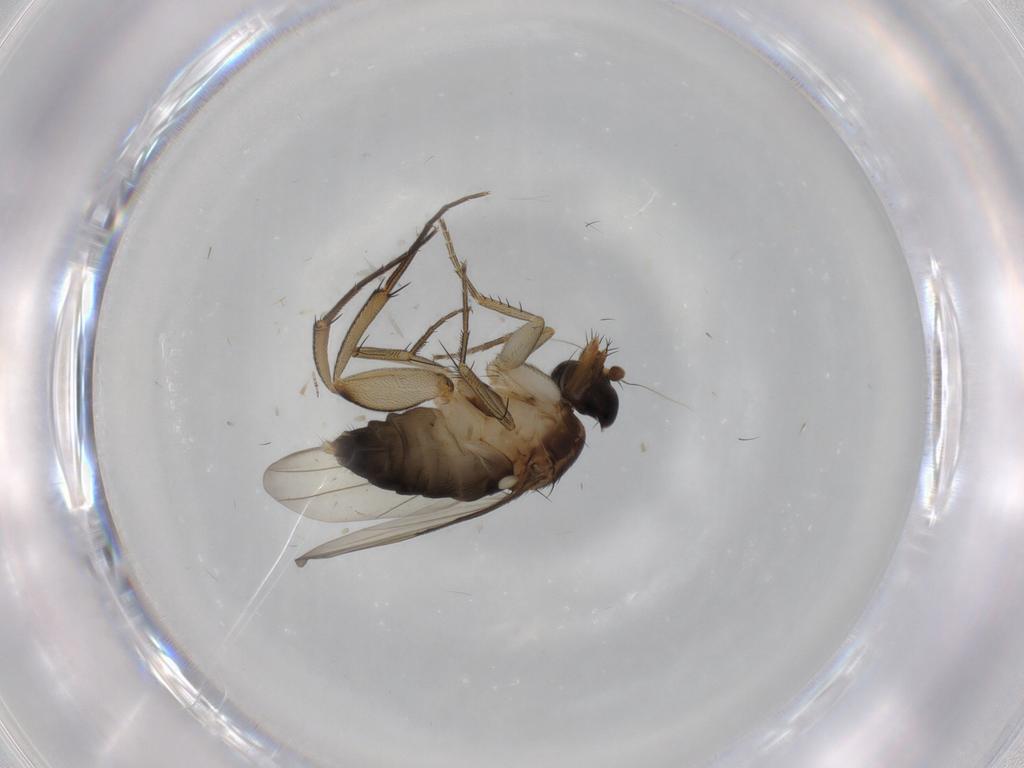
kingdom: Animalia
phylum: Arthropoda
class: Insecta
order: Diptera
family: Phoridae
